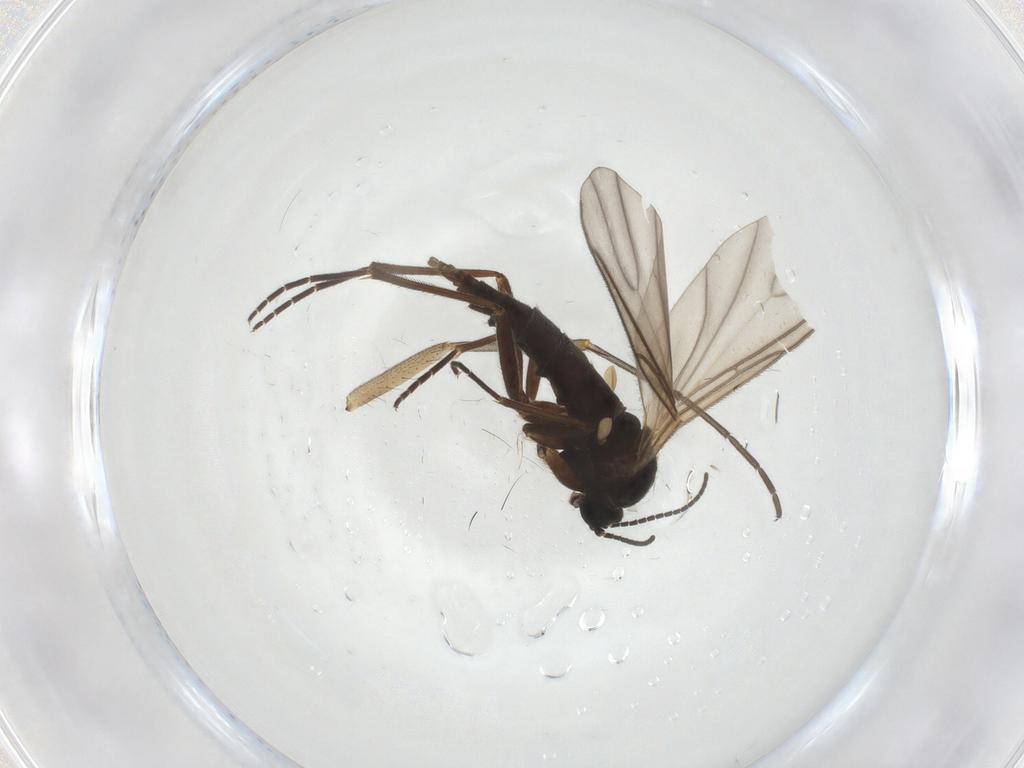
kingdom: Animalia
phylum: Arthropoda
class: Insecta
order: Diptera
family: Sciaridae
